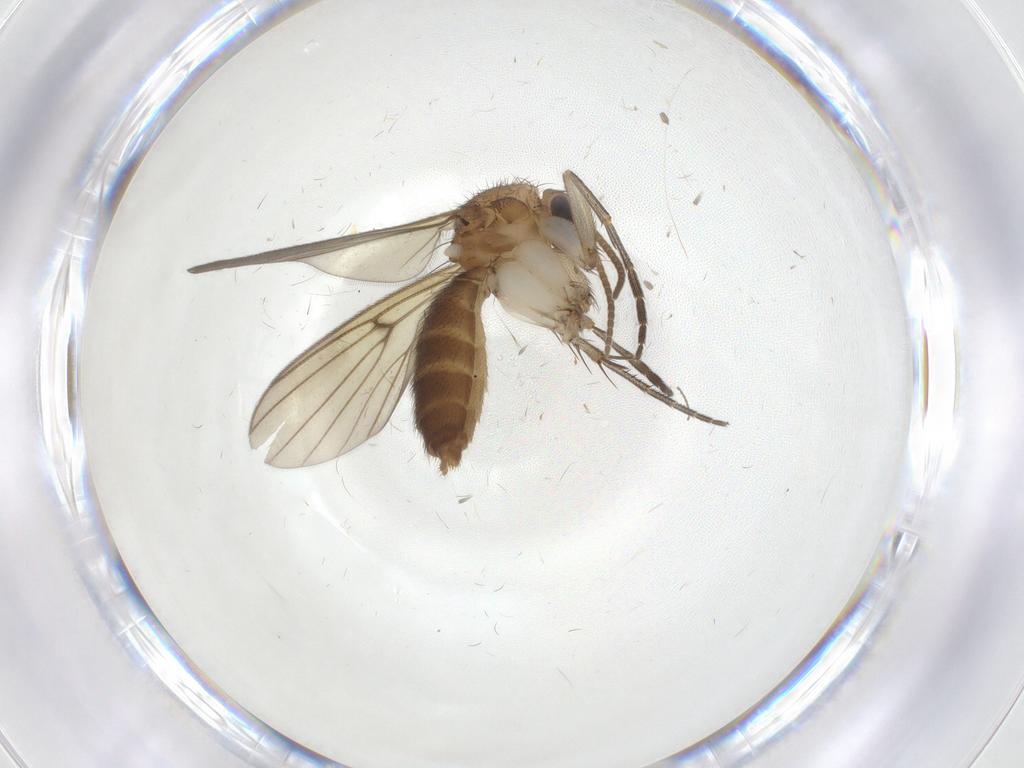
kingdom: Animalia
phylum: Arthropoda
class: Insecta
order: Diptera
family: Mycetophilidae
